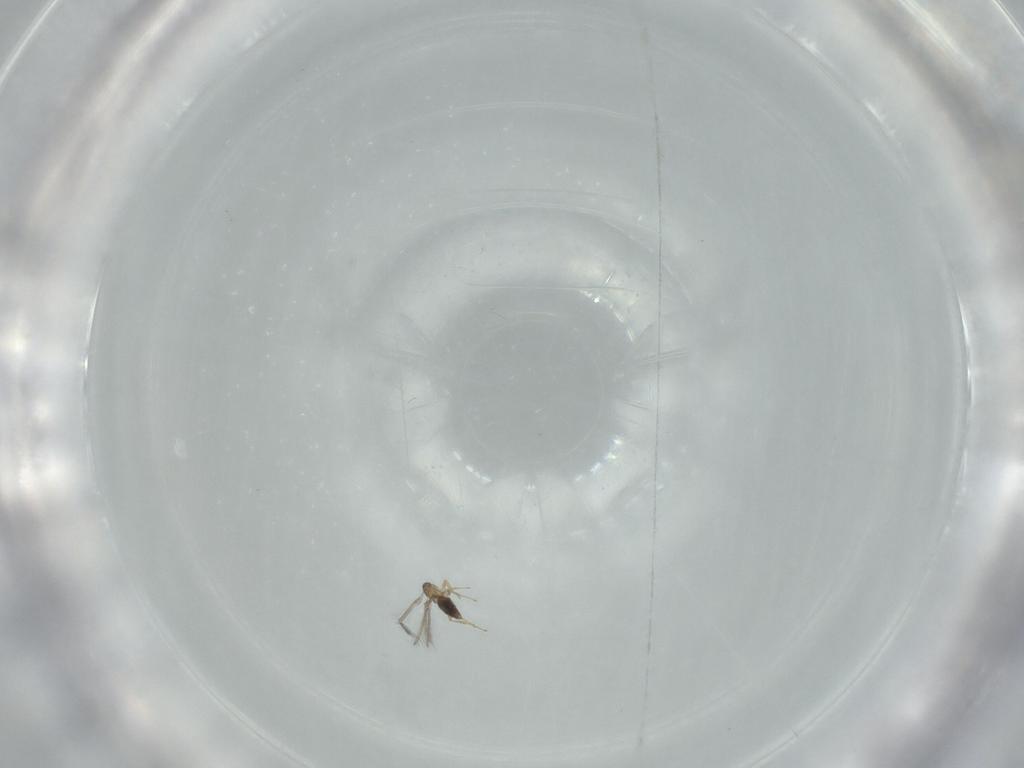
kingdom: Animalia
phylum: Arthropoda
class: Insecta
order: Hymenoptera
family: Mymaridae
